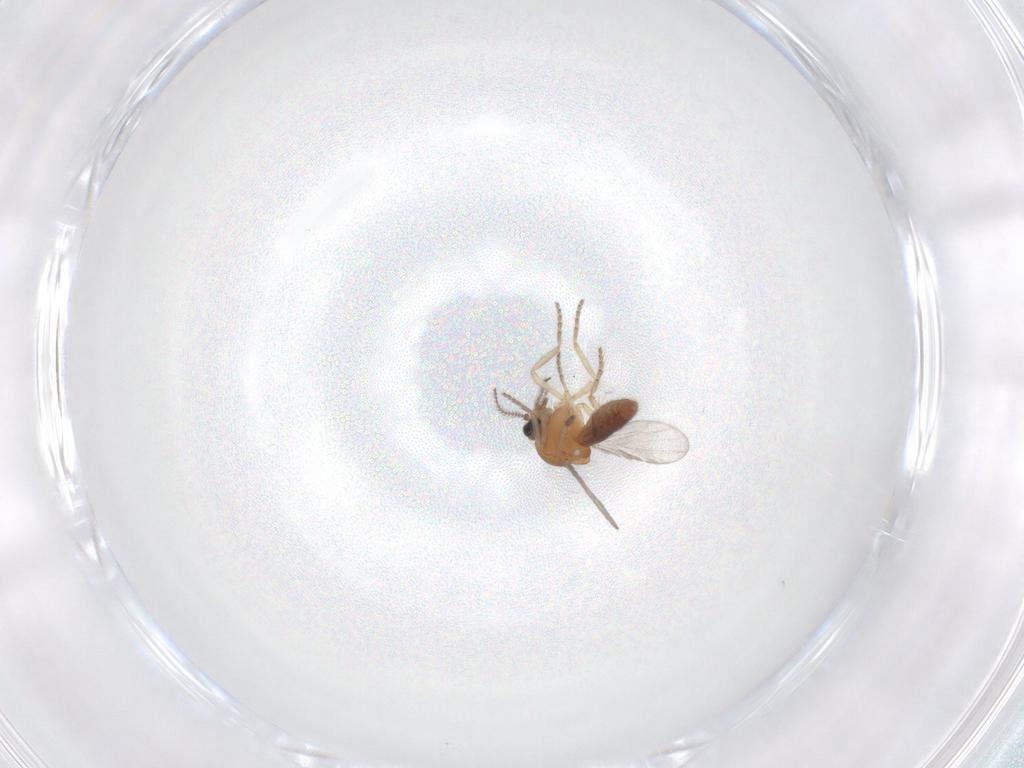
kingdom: Animalia
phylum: Arthropoda
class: Insecta
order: Diptera
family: Ceratopogonidae
